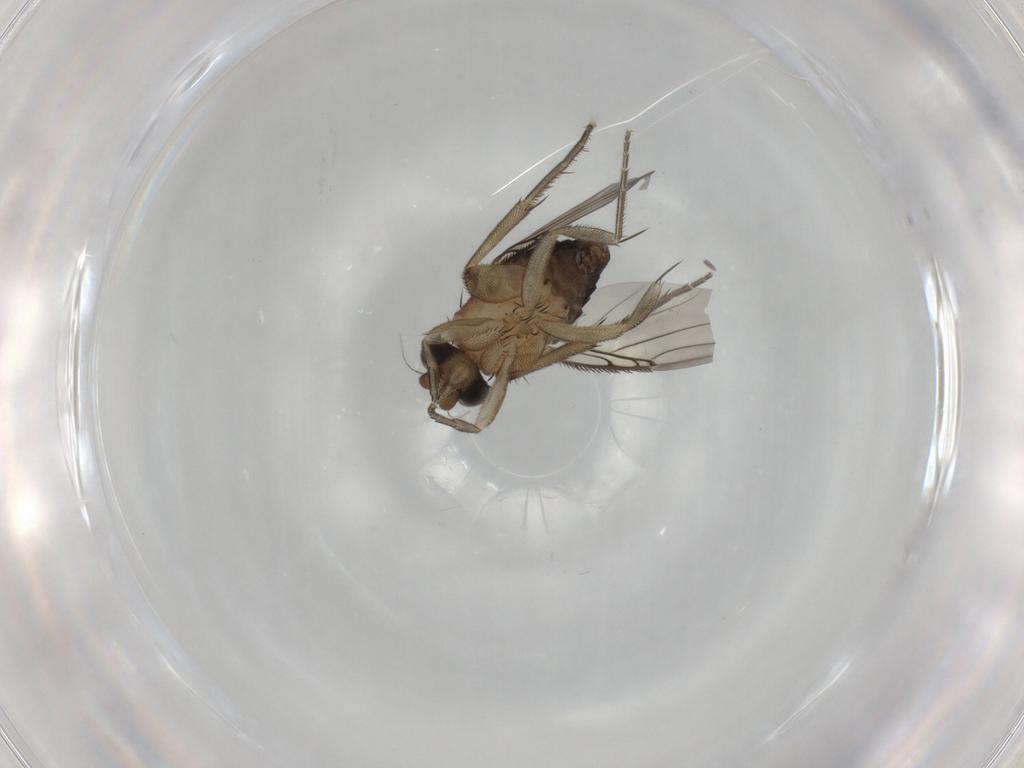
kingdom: Animalia
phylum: Arthropoda
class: Insecta
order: Diptera
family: Phoridae
